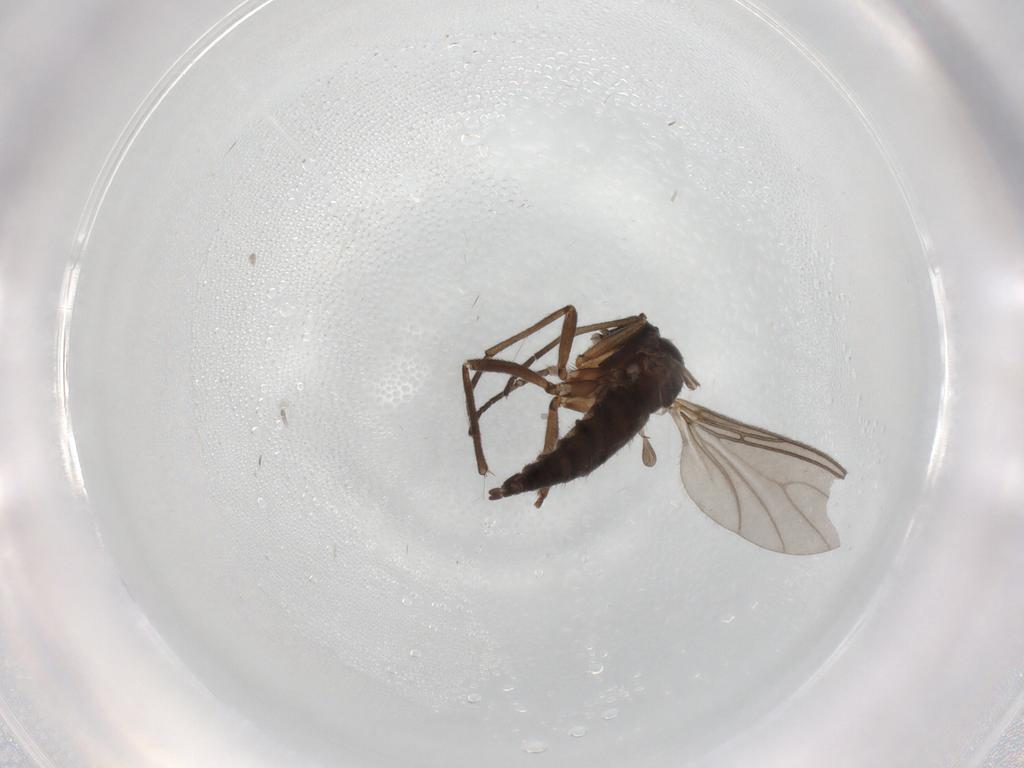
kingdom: Animalia
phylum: Arthropoda
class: Insecta
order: Diptera
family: Sciaridae
